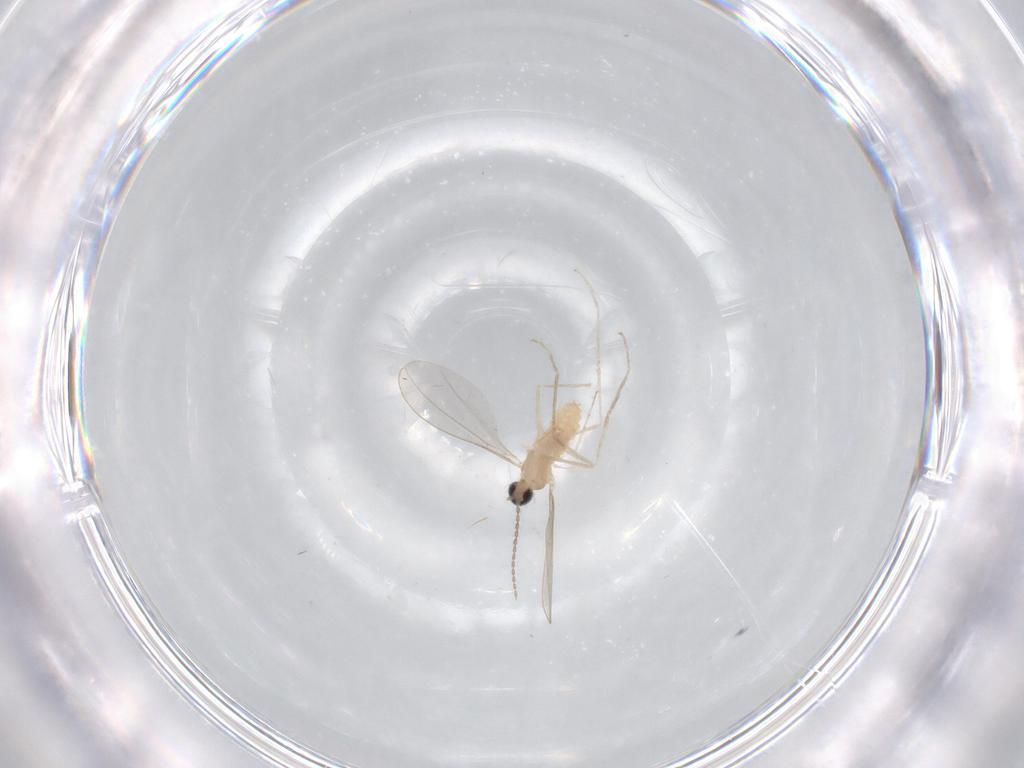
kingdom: Animalia
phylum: Arthropoda
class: Insecta
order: Diptera
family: Cecidomyiidae
